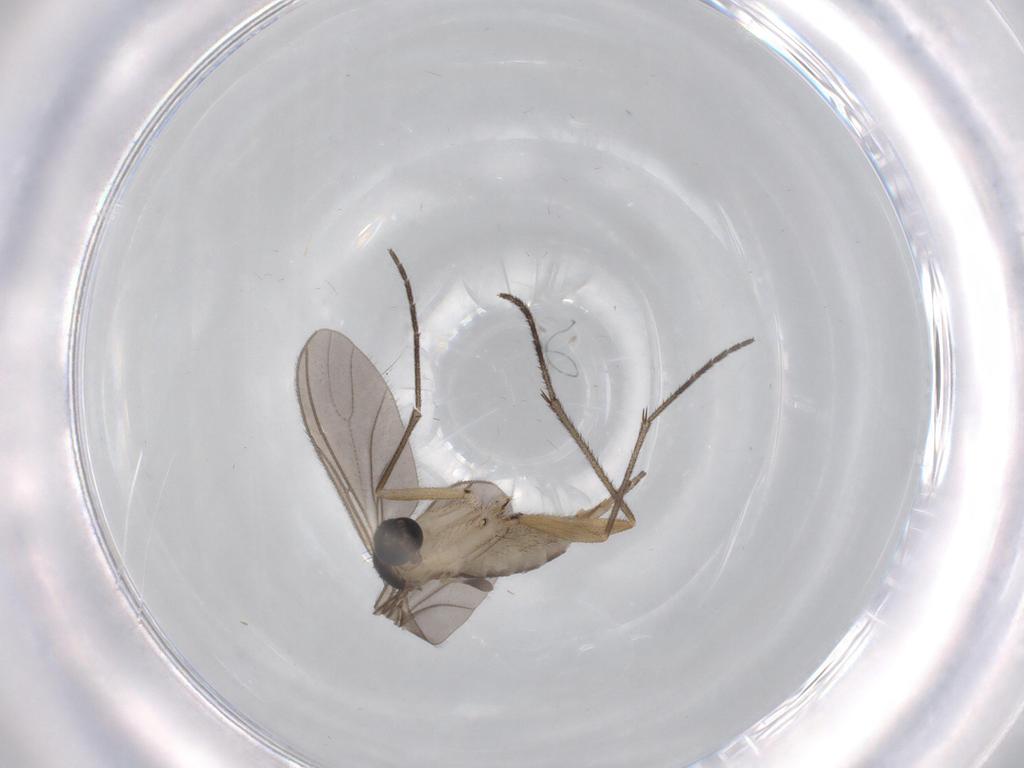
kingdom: Animalia
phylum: Arthropoda
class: Insecta
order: Diptera
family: Sciaridae
